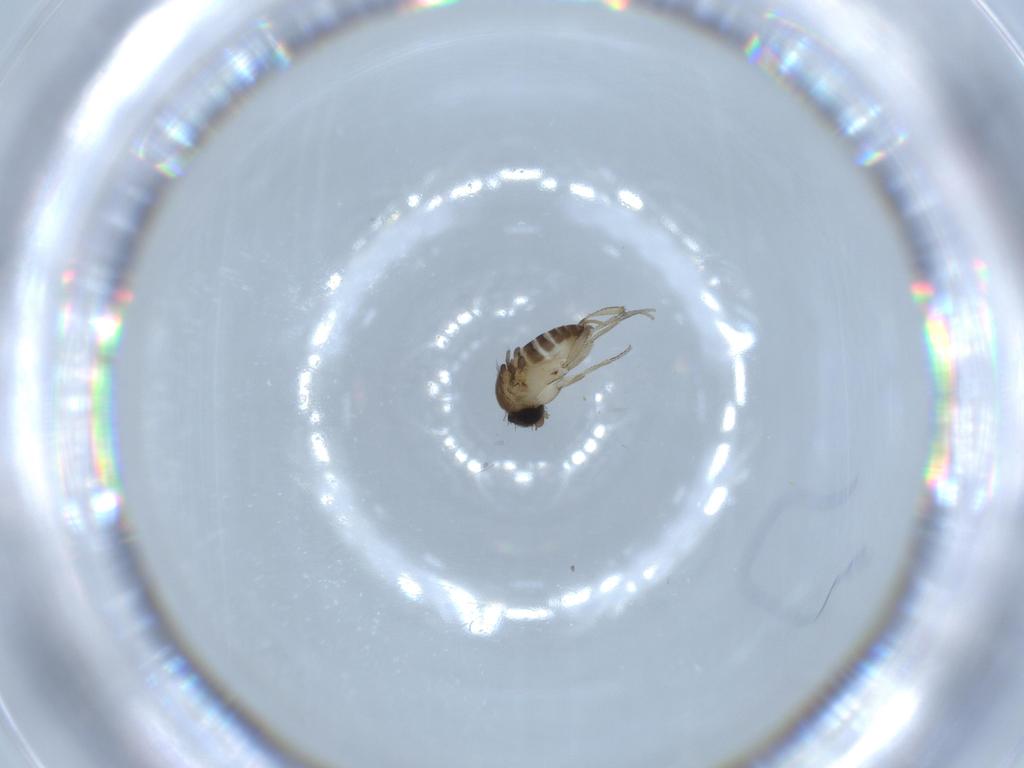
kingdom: Animalia
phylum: Arthropoda
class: Insecta
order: Diptera
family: Phoridae
